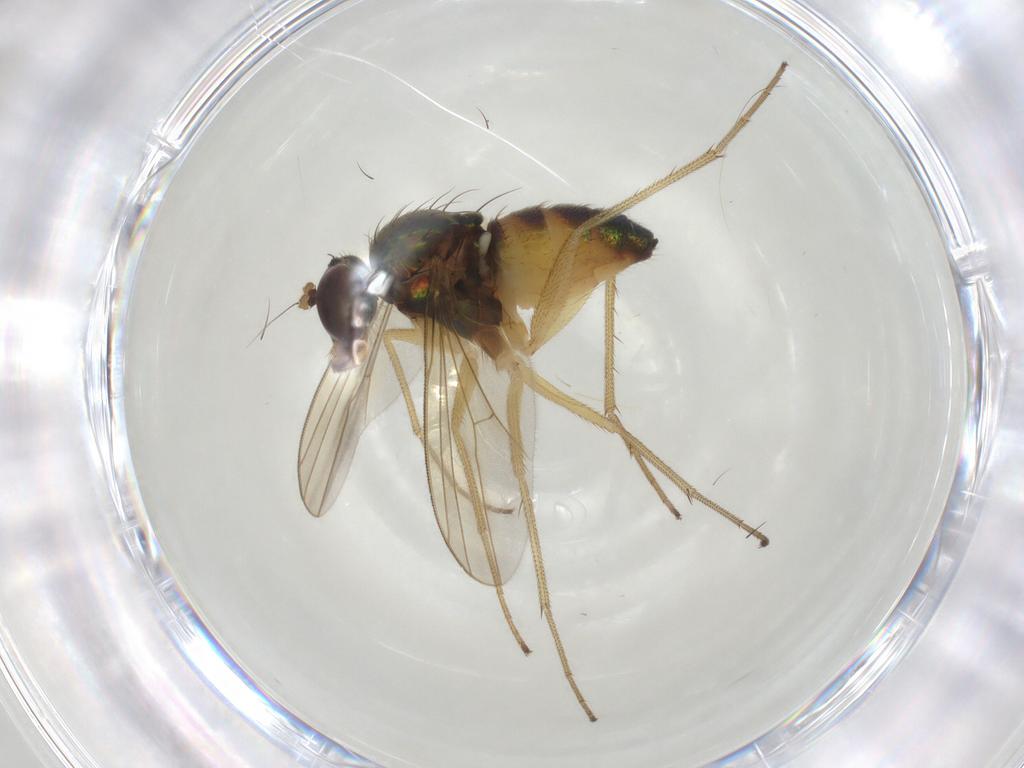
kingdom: Animalia
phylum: Arthropoda
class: Insecta
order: Diptera
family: Dolichopodidae
